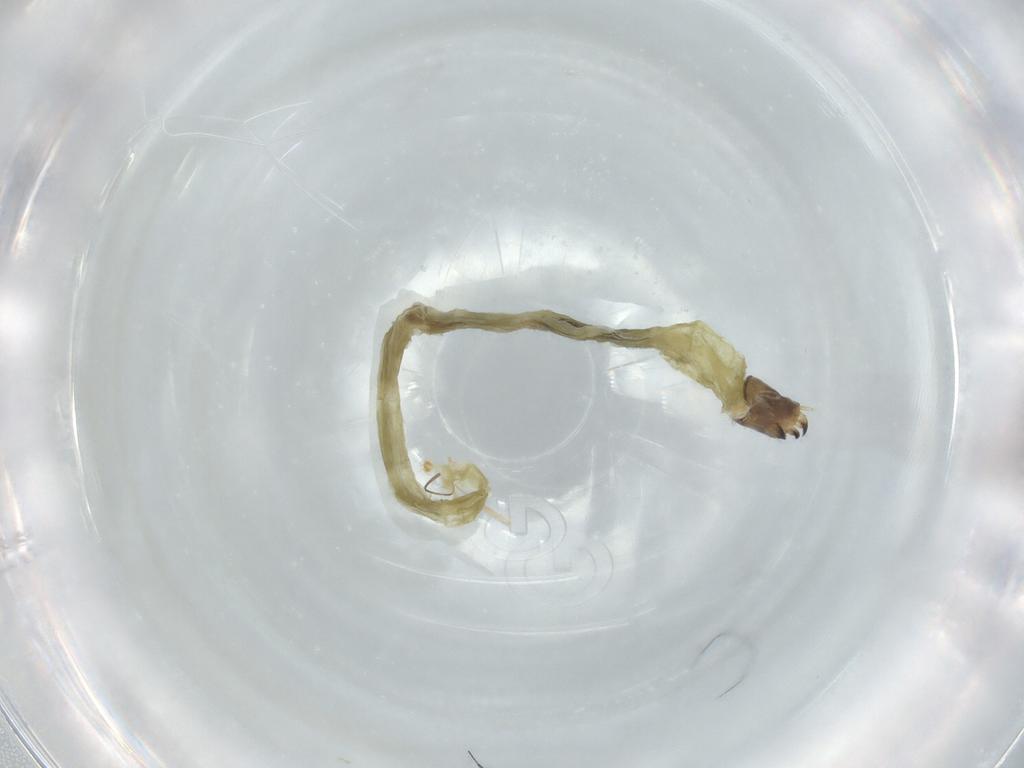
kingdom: Animalia
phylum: Arthropoda
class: Insecta
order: Diptera
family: Chironomidae
